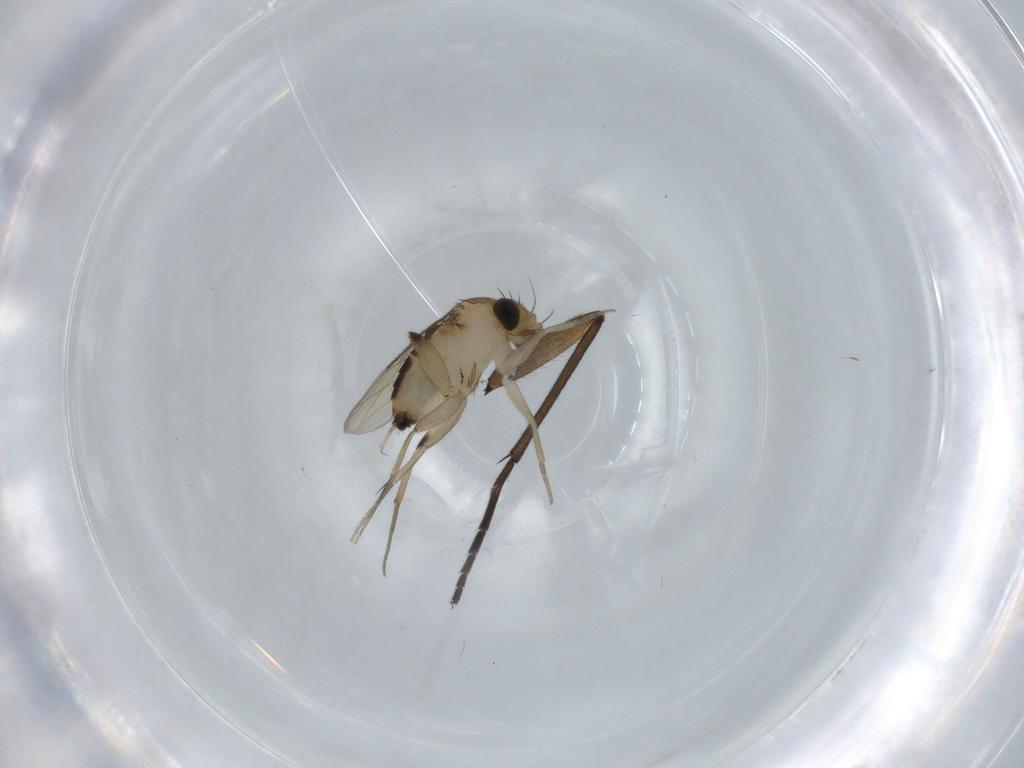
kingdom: Animalia
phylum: Arthropoda
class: Insecta
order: Diptera
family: Sciaridae
